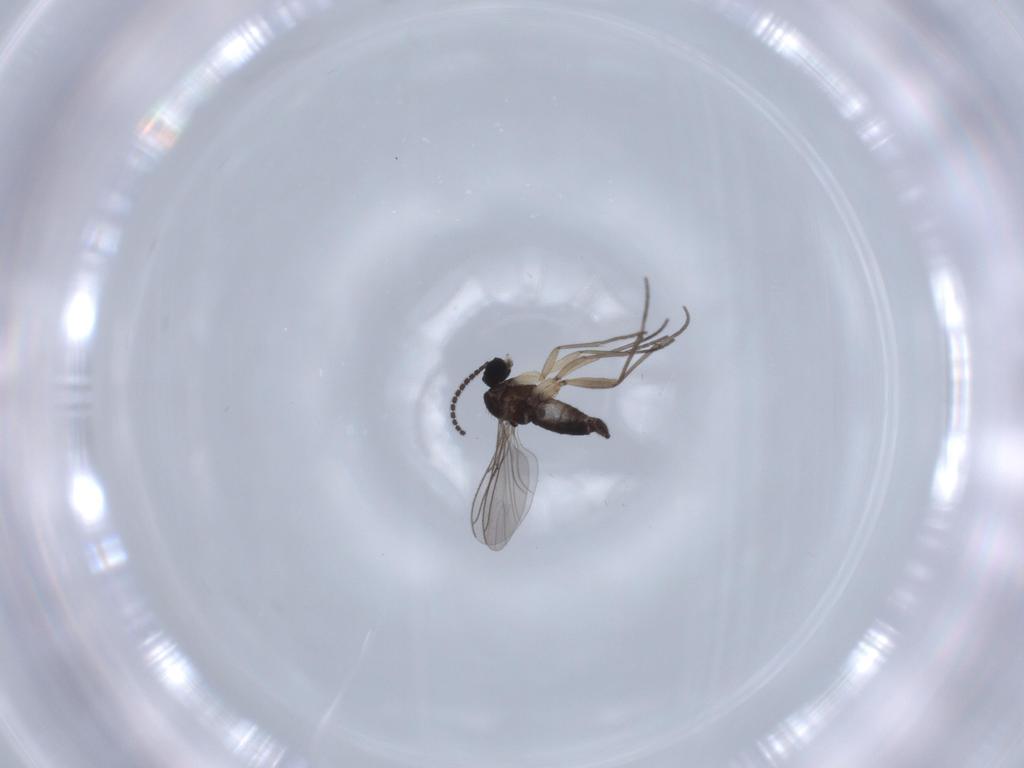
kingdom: Animalia
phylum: Arthropoda
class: Insecta
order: Diptera
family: Sciaridae
